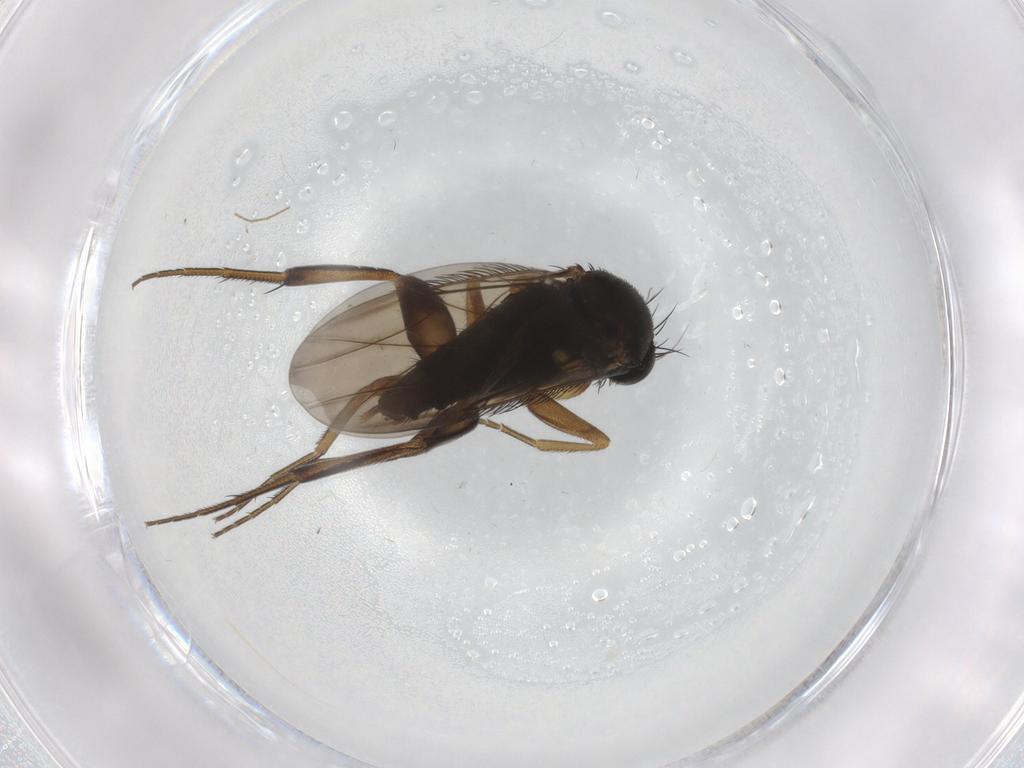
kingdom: Animalia
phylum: Arthropoda
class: Insecta
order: Diptera
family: Phoridae
